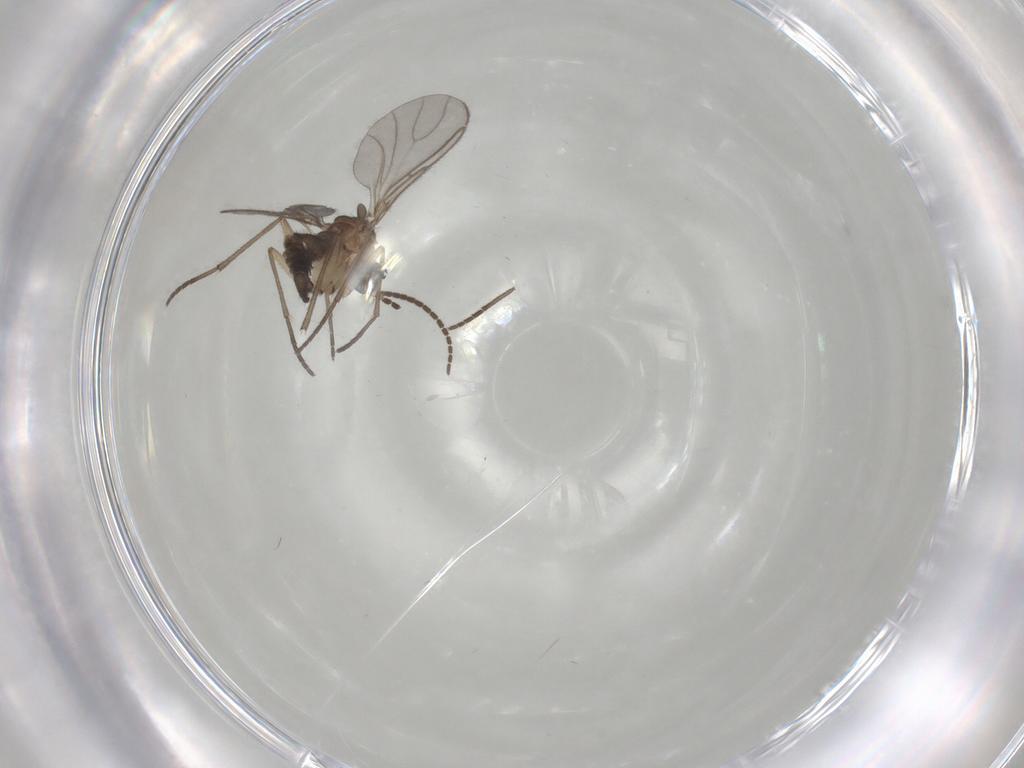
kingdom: Animalia
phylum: Arthropoda
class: Insecta
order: Diptera
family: Sciaridae
